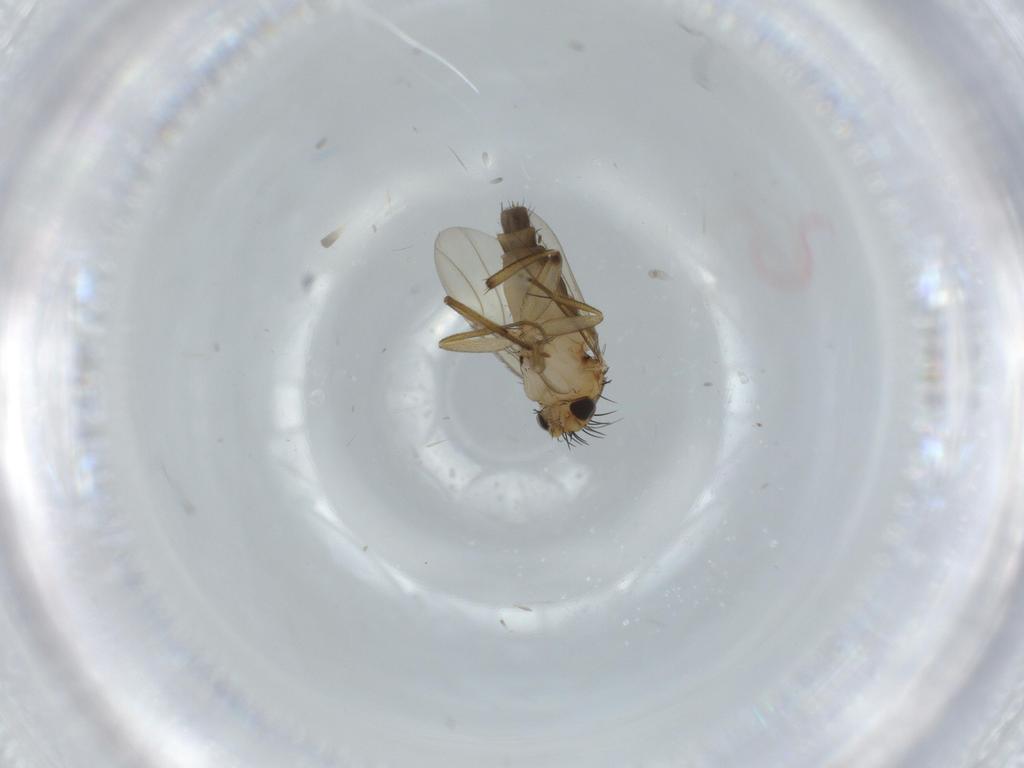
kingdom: Animalia
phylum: Arthropoda
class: Insecta
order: Diptera
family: Sciaridae
